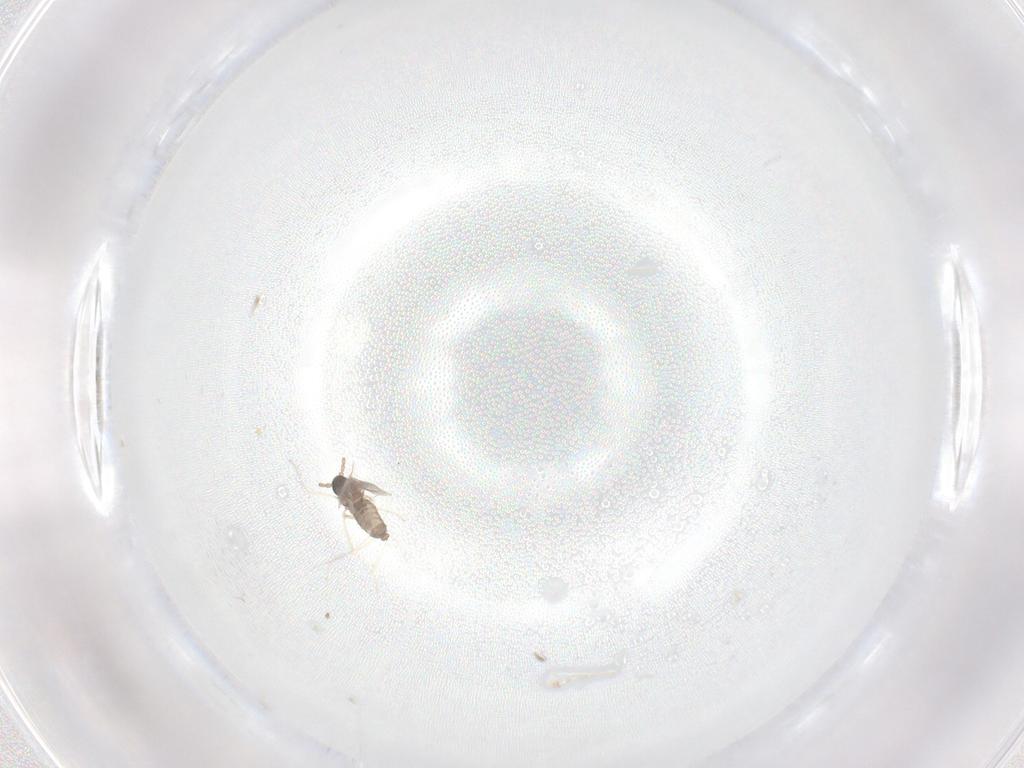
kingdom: Animalia
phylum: Arthropoda
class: Insecta
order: Diptera
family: Cecidomyiidae
